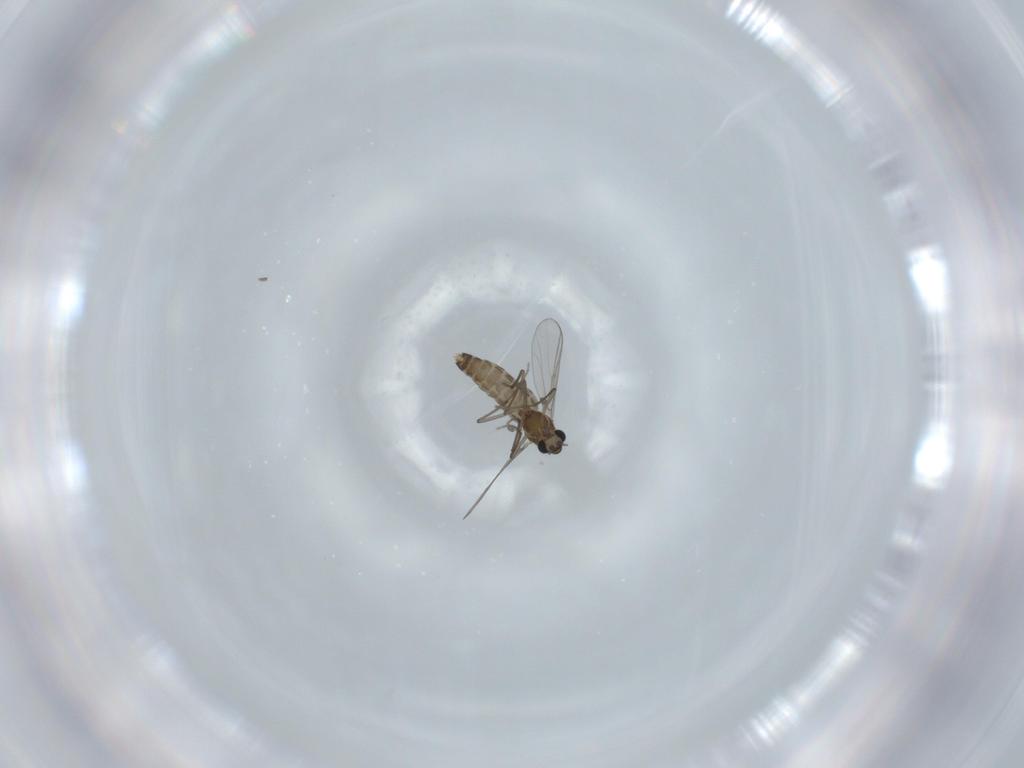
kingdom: Animalia
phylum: Arthropoda
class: Insecta
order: Diptera
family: Chironomidae
